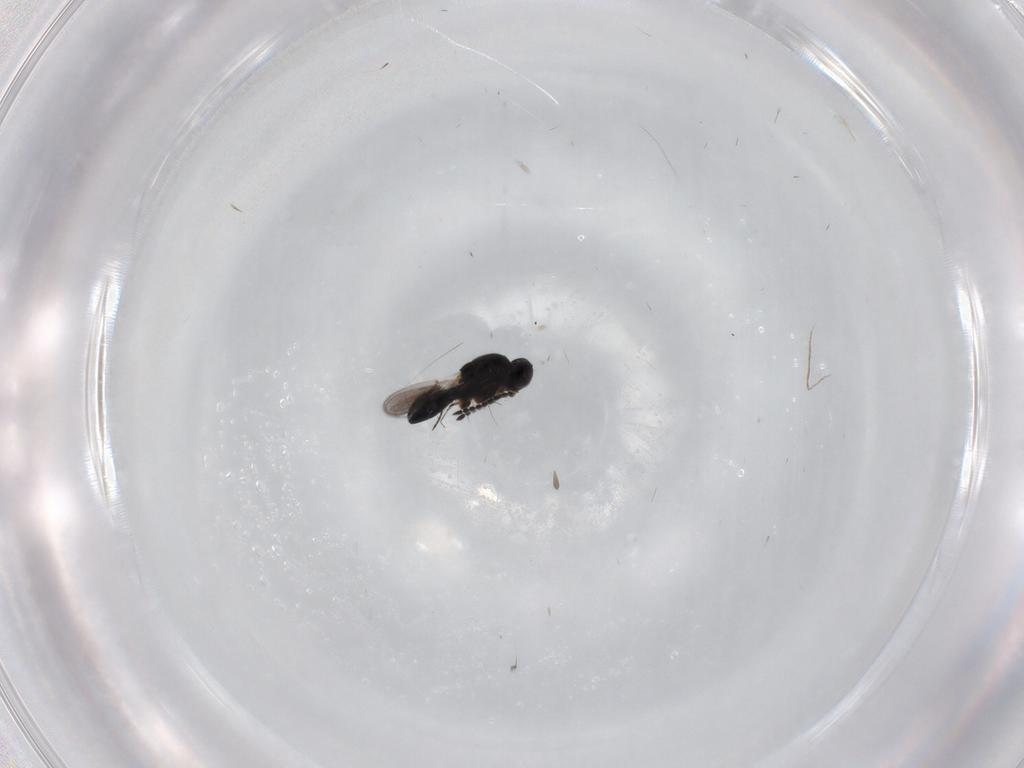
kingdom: Animalia
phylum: Arthropoda
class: Insecta
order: Hymenoptera
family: Platygastridae
